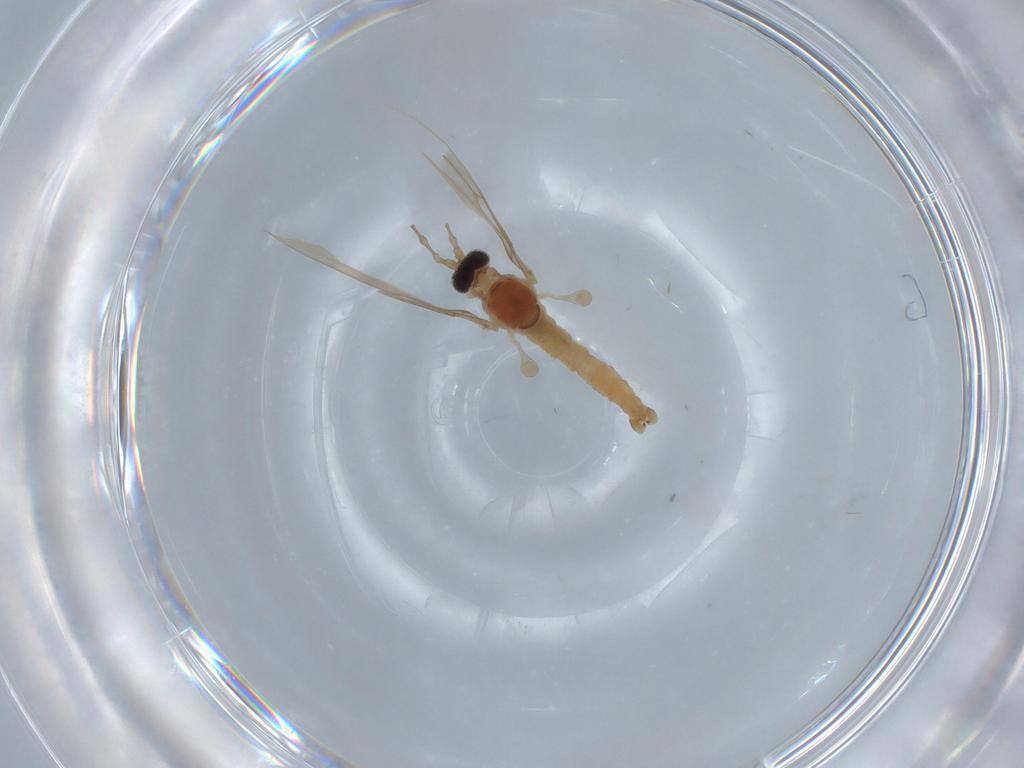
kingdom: Animalia
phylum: Arthropoda
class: Insecta
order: Diptera
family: Cecidomyiidae
